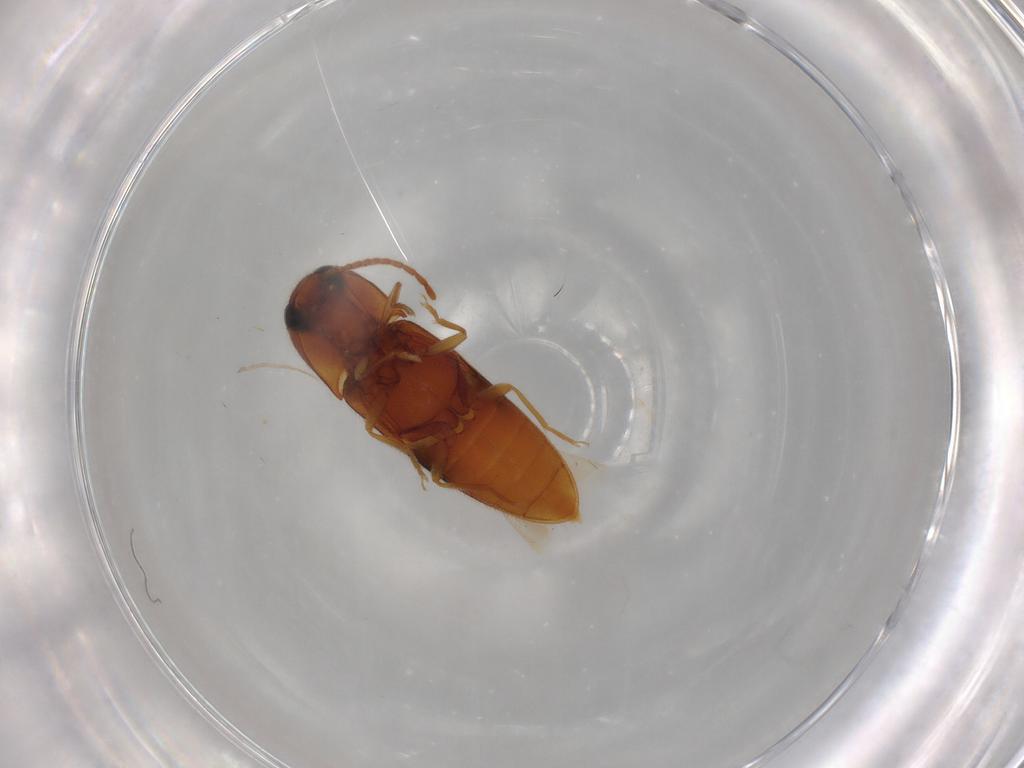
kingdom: Animalia
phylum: Arthropoda
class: Insecta
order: Coleoptera
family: Elateridae
